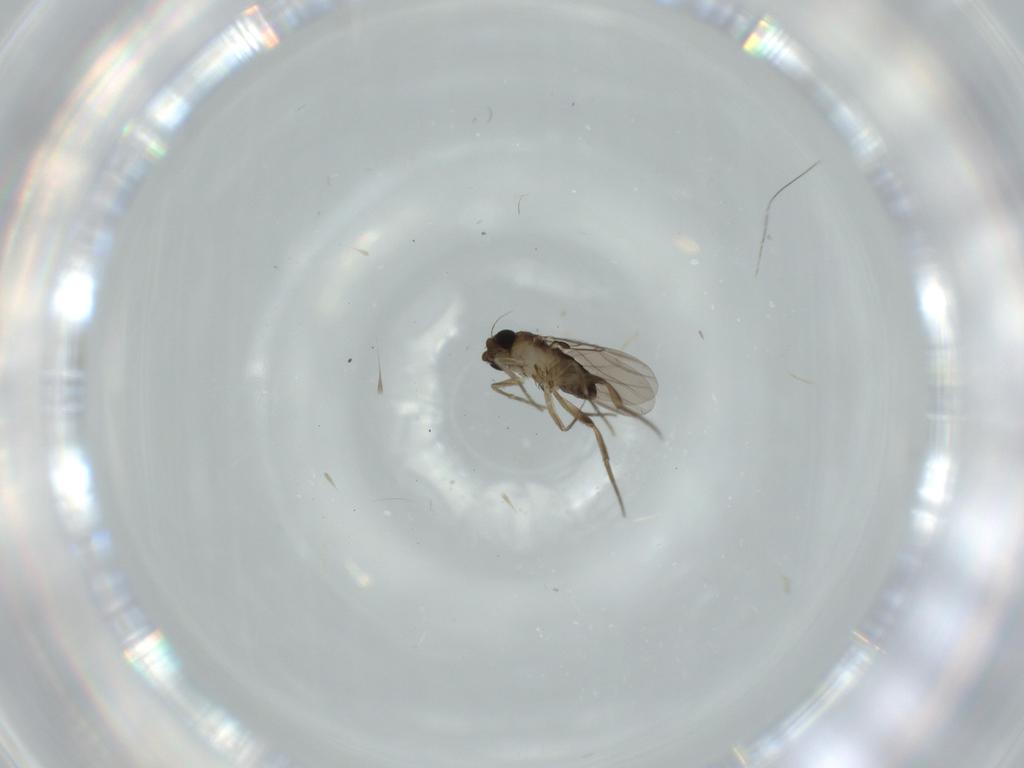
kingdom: Animalia
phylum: Arthropoda
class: Insecta
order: Diptera
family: Phoridae
